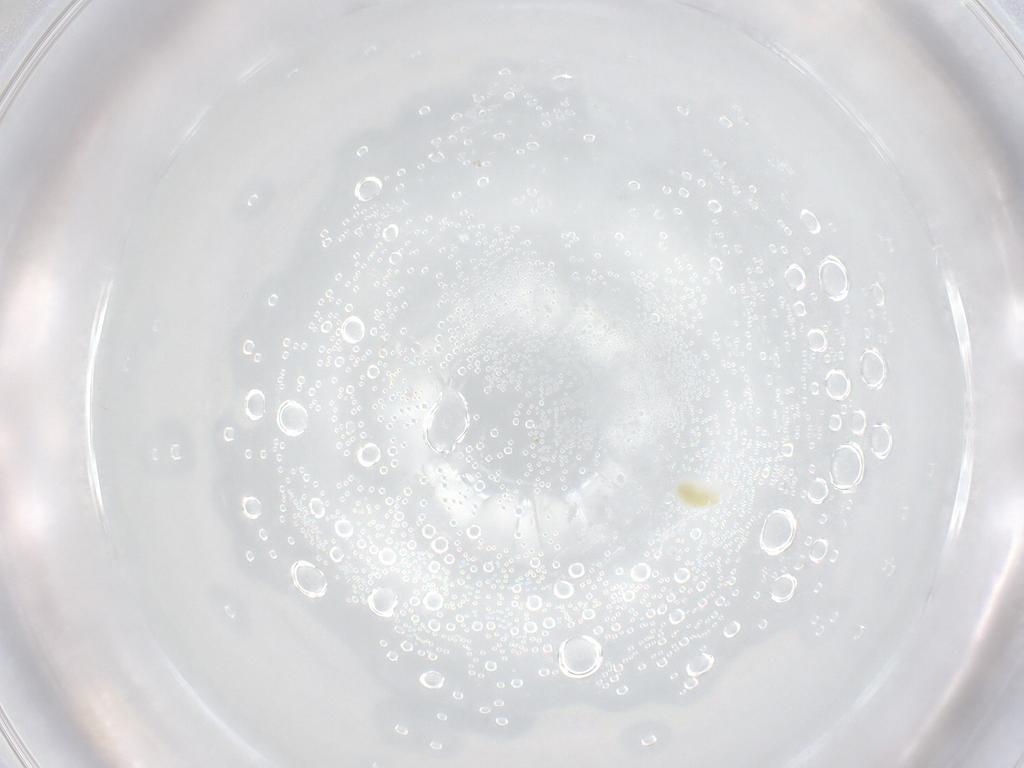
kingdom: Animalia
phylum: Arthropoda
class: Arachnida
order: Trombidiformes
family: Eupodidae
